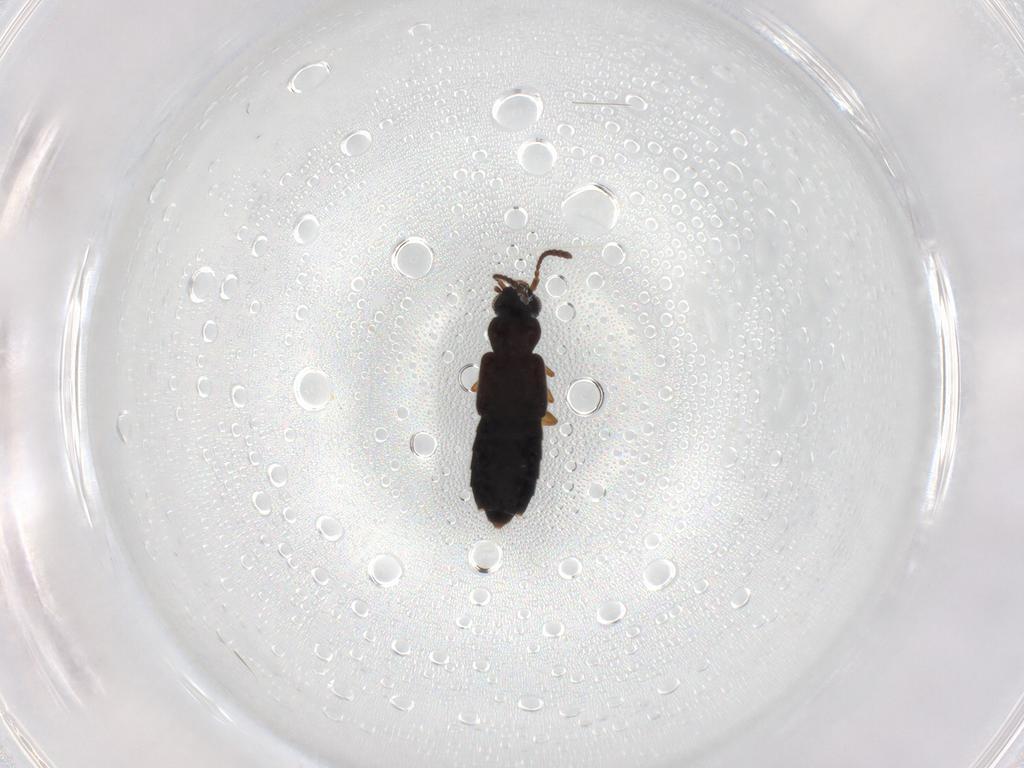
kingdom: Animalia
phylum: Arthropoda
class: Insecta
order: Coleoptera
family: Staphylinidae
